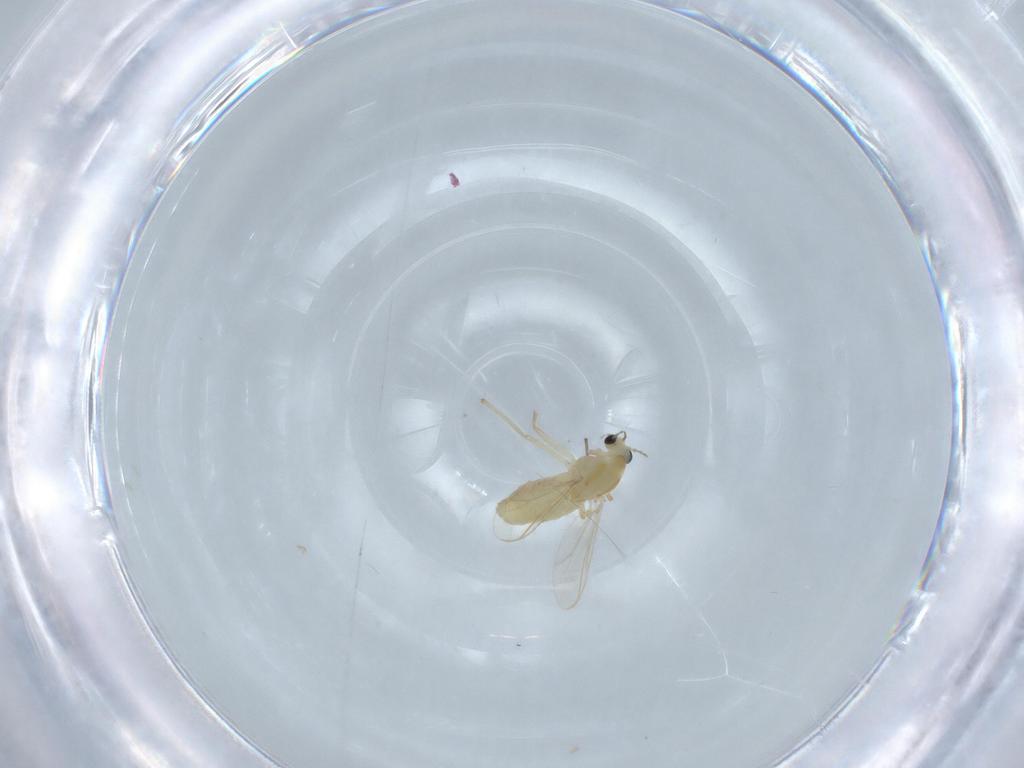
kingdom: Animalia
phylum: Arthropoda
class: Insecta
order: Diptera
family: Chironomidae
